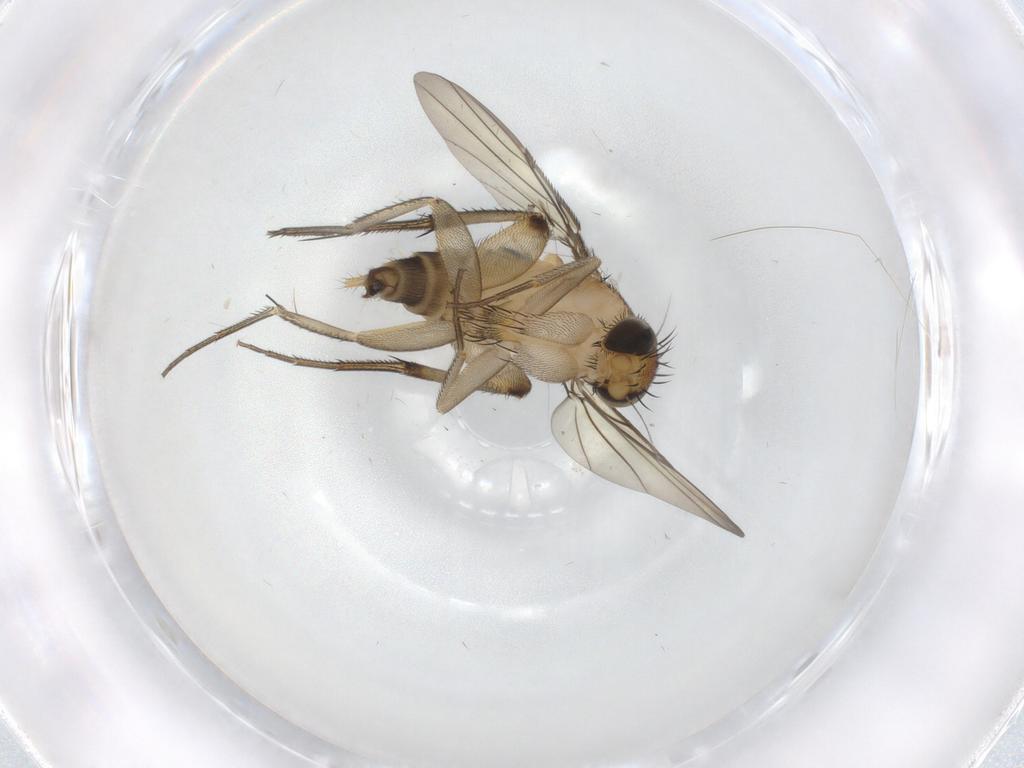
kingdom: Animalia
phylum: Arthropoda
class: Insecta
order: Diptera
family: Phoridae
